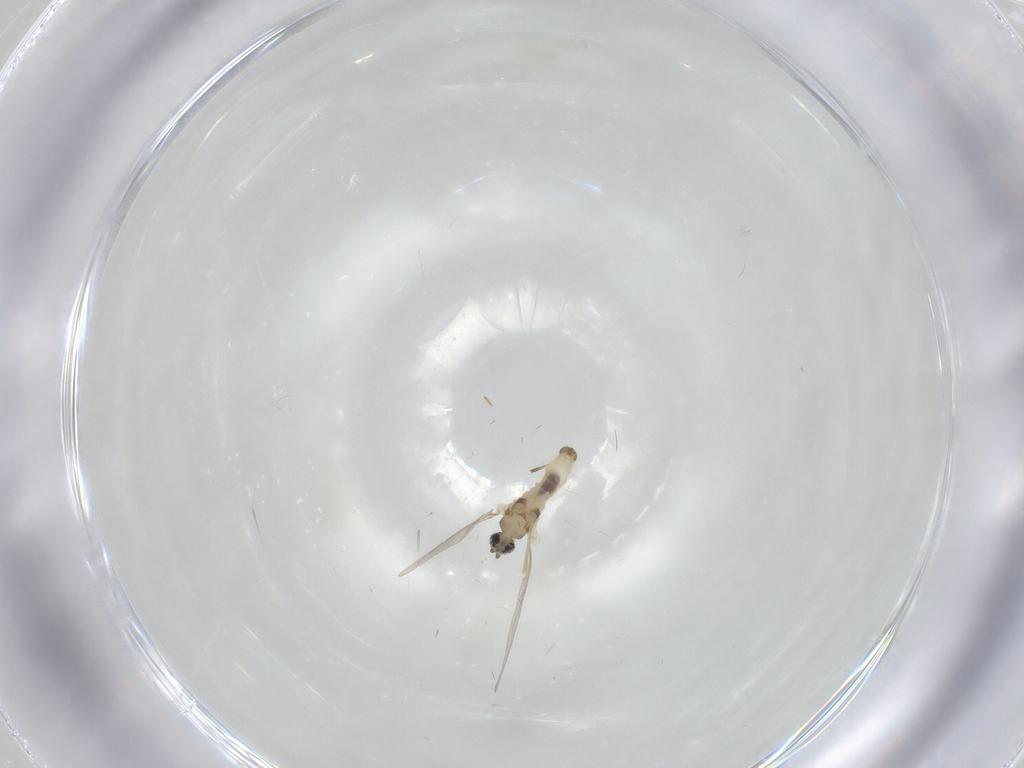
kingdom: Animalia
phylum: Arthropoda
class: Insecta
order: Diptera
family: Cecidomyiidae
